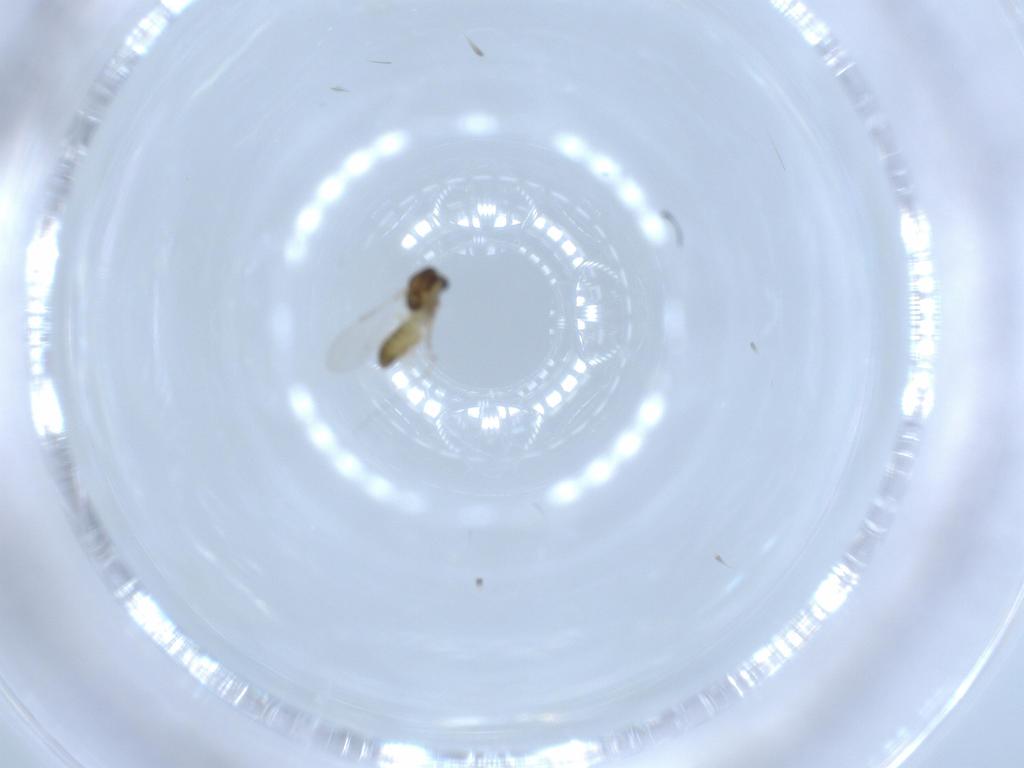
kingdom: Animalia
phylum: Arthropoda
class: Insecta
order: Diptera
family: Chironomidae
